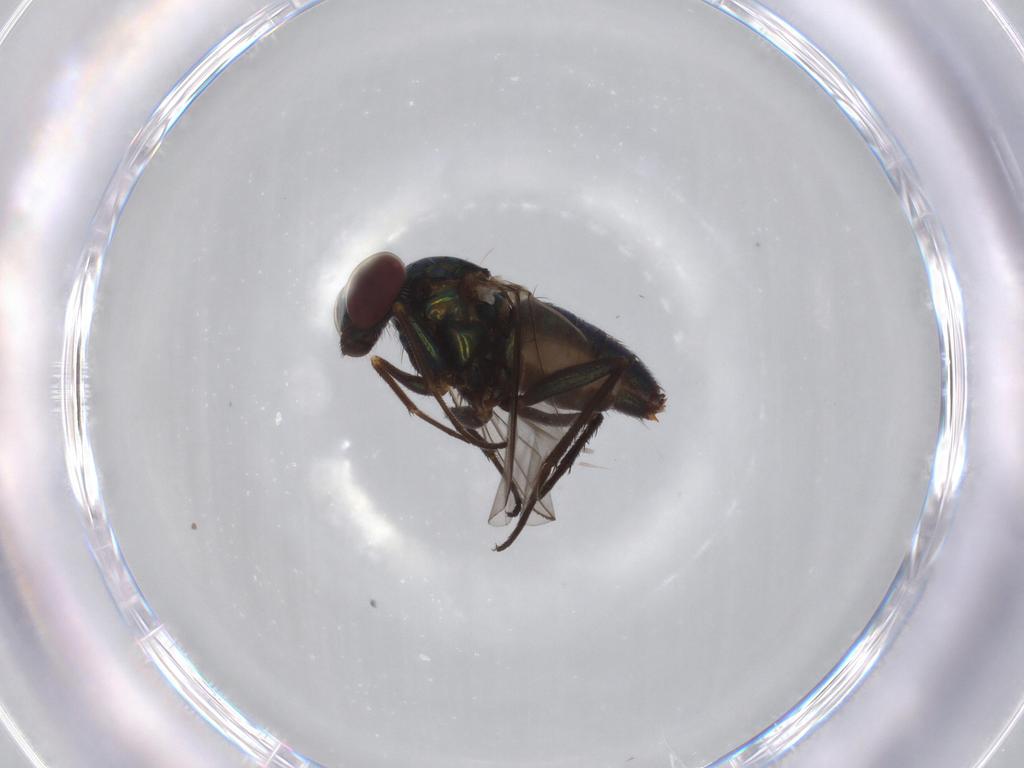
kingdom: Animalia
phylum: Arthropoda
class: Insecta
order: Diptera
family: Dolichopodidae
